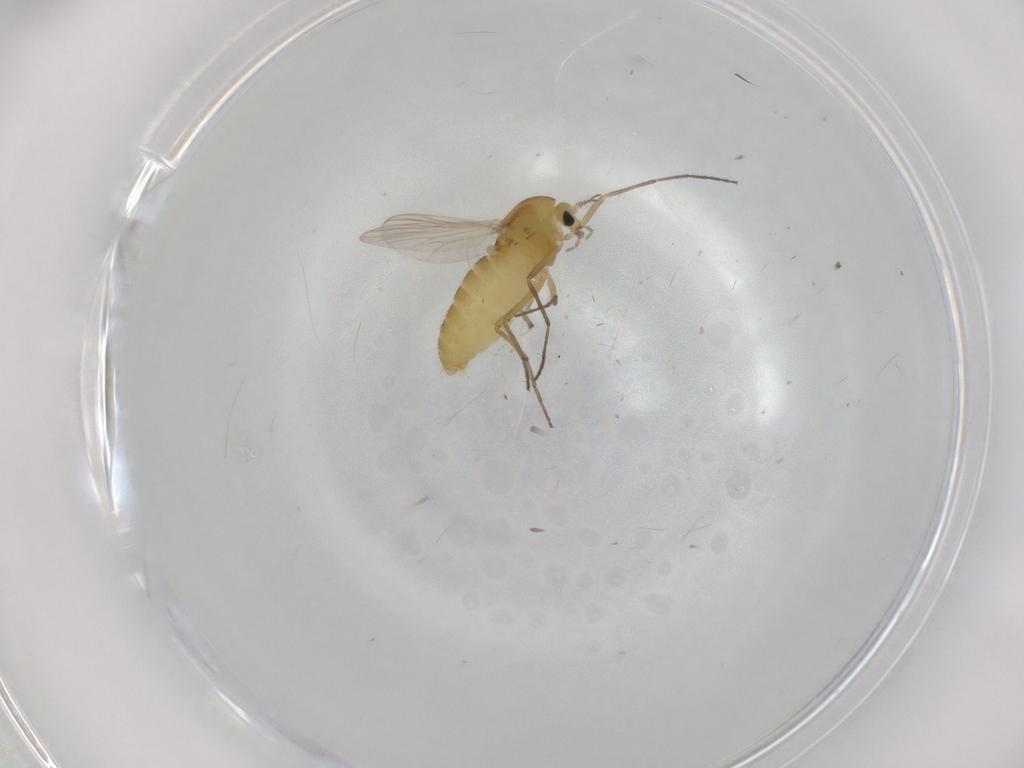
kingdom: Animalia
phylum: Arthropoda
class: Insecta
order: Diptera
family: Chironomidae
